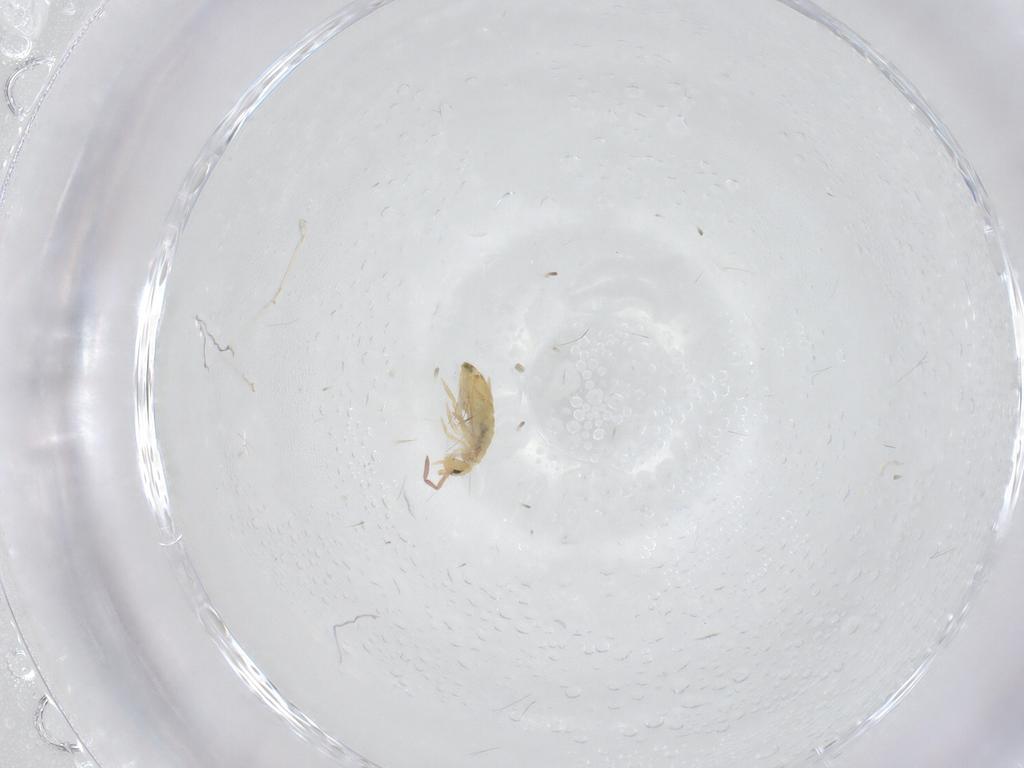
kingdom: Animalia
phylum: Arthropoda
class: Collembola
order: Entomobryomorpha
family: Entomobryidae
